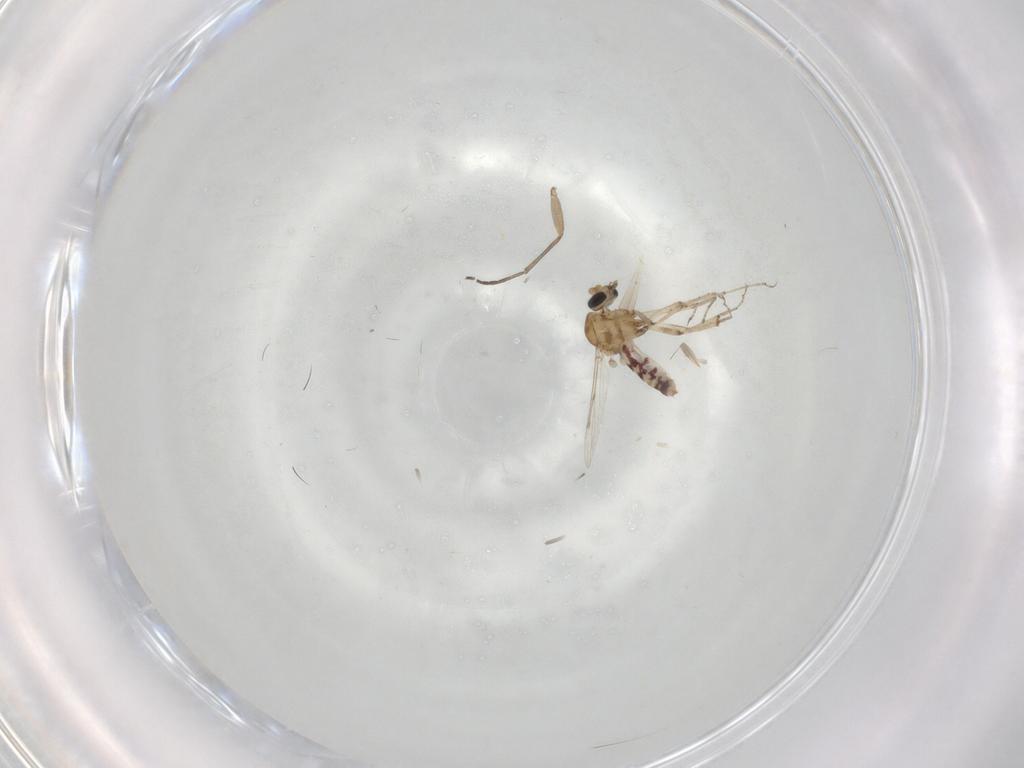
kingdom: Animalia
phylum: Arthropoda
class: Insecta
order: Diptera
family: Ceratopogonidae
